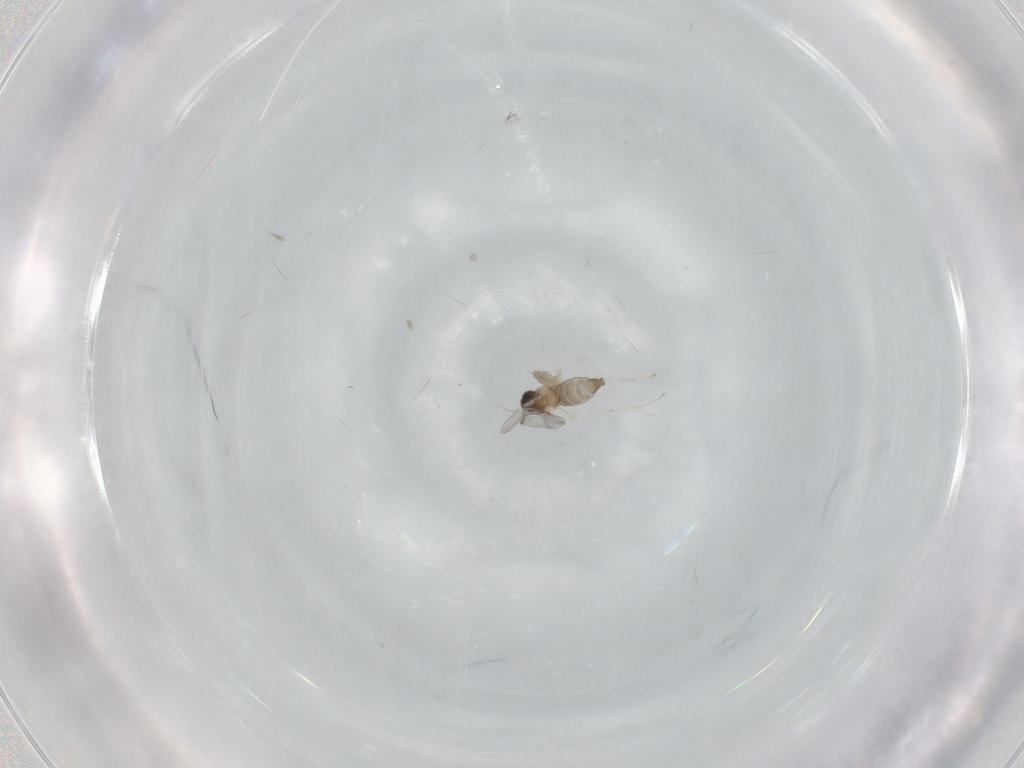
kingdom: Animalia
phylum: Arthropoda
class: Insecta
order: Diptera
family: Cecidomyiidae
